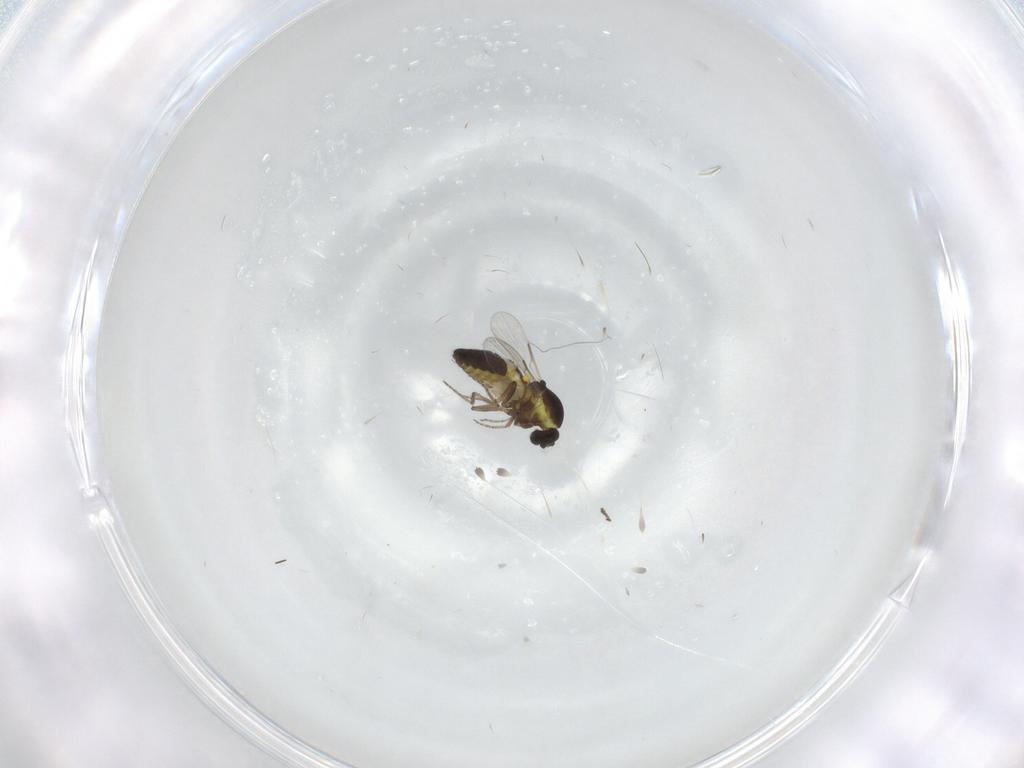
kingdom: Animalia
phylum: Arthropoda
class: Insecta
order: Diptera
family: Ceratopogonidae
